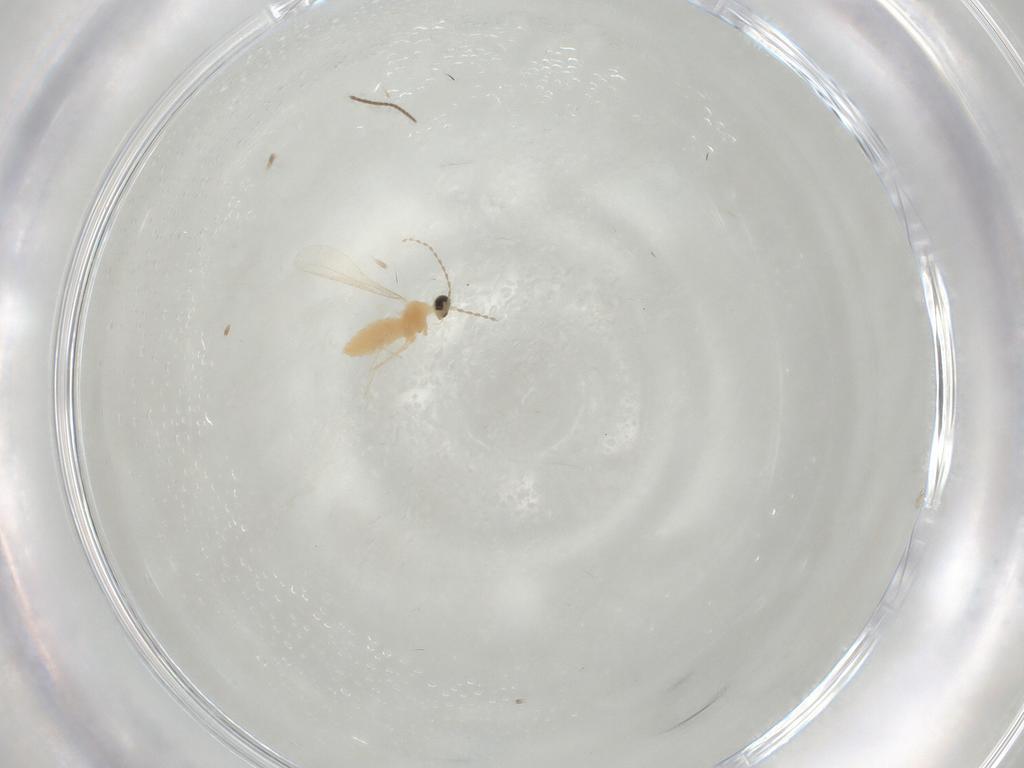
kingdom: Animalia
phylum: Arthropoda
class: Insecta
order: Diptera
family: Cecidomyiidae
